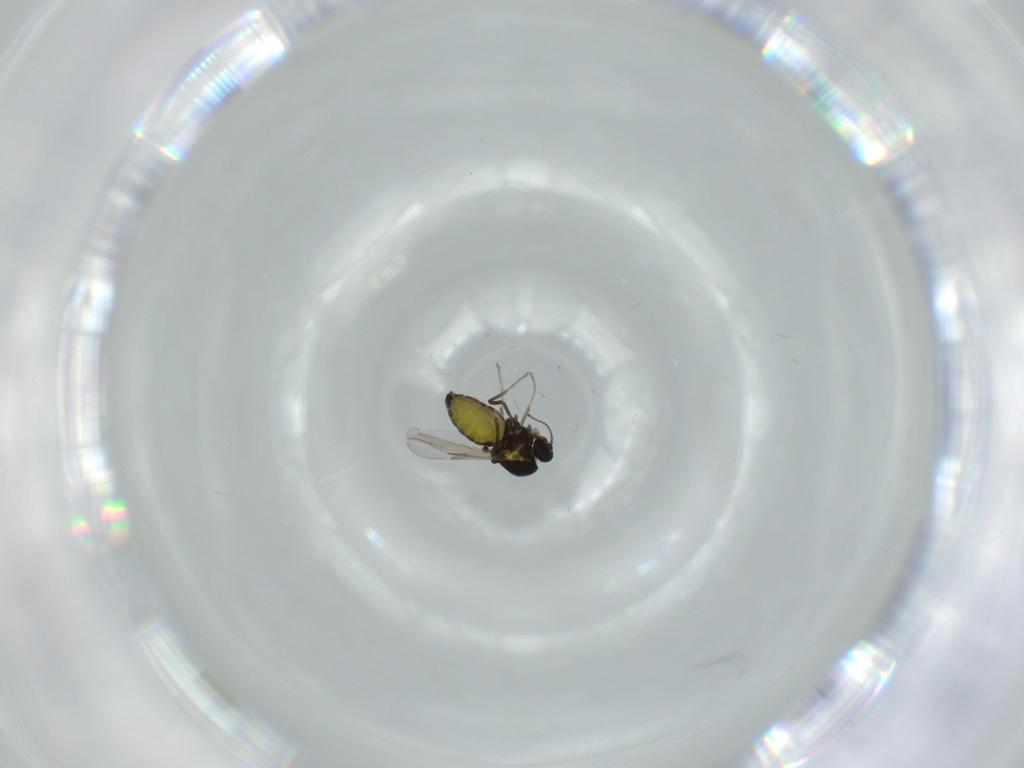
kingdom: Animalia
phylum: Arthropoda
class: Insecta
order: Diptera
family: Ceratopogonidae
